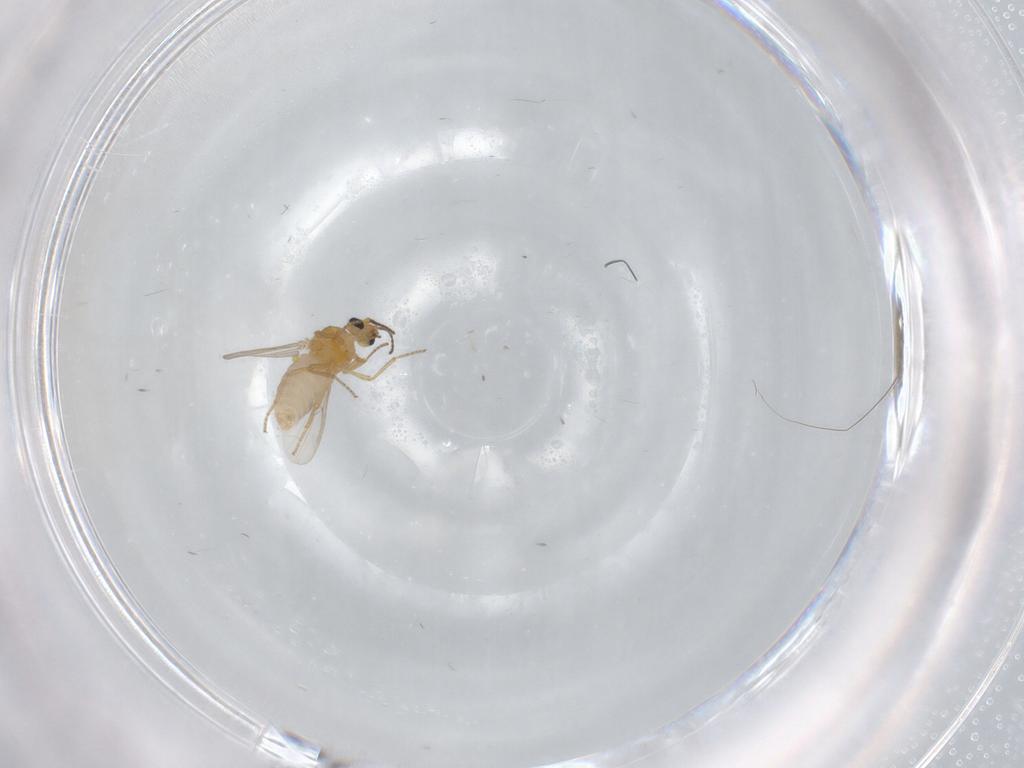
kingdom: Animalia
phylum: Arthropoda
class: Insecta
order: Diptera
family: Ceratopogonidae
